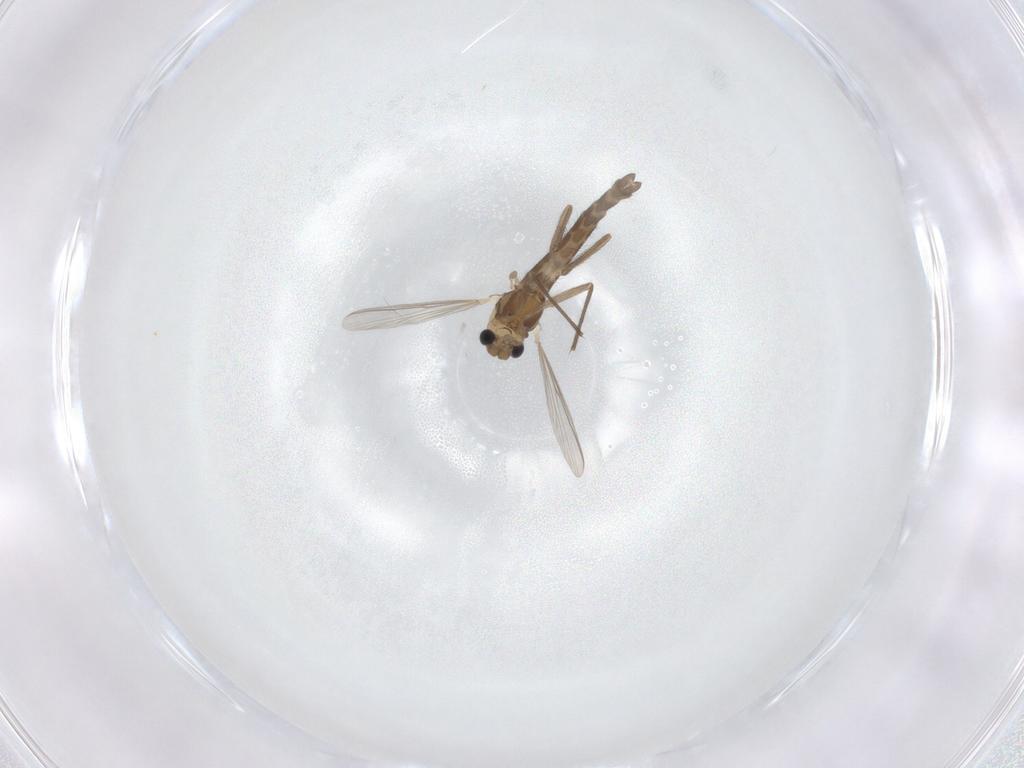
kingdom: Animalia
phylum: Arthropoda
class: Insecta
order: Diptera
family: Chironomidae
